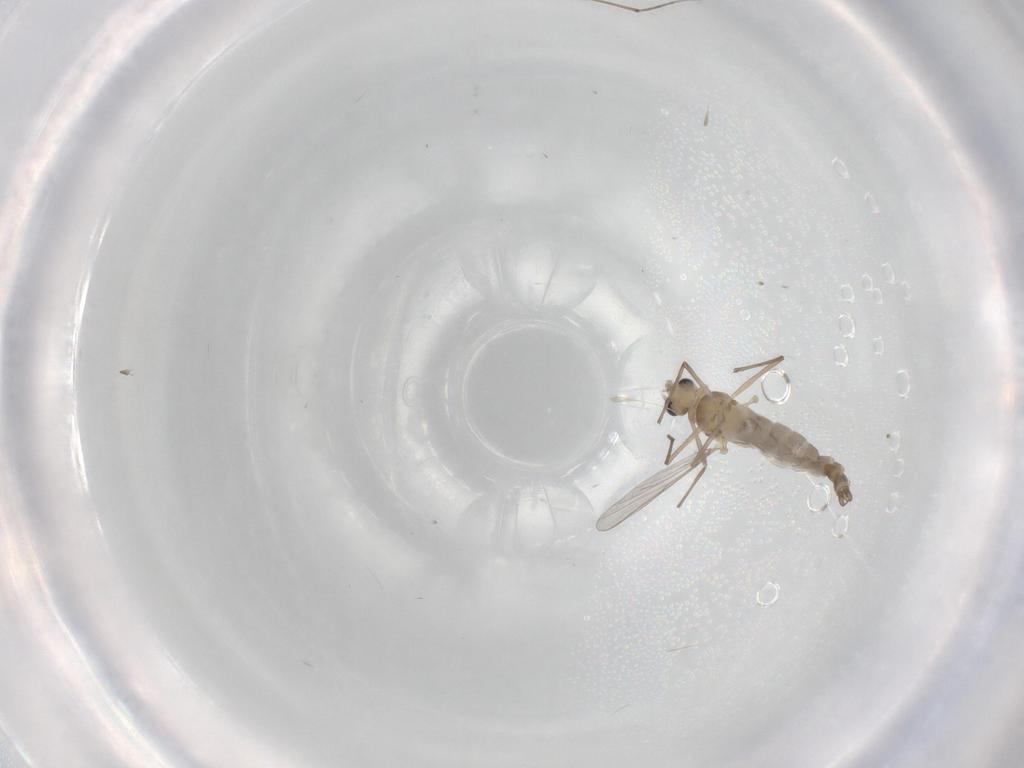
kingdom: Animalia
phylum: Arthropoda
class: Insecta
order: Diptera
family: Chironomidae
